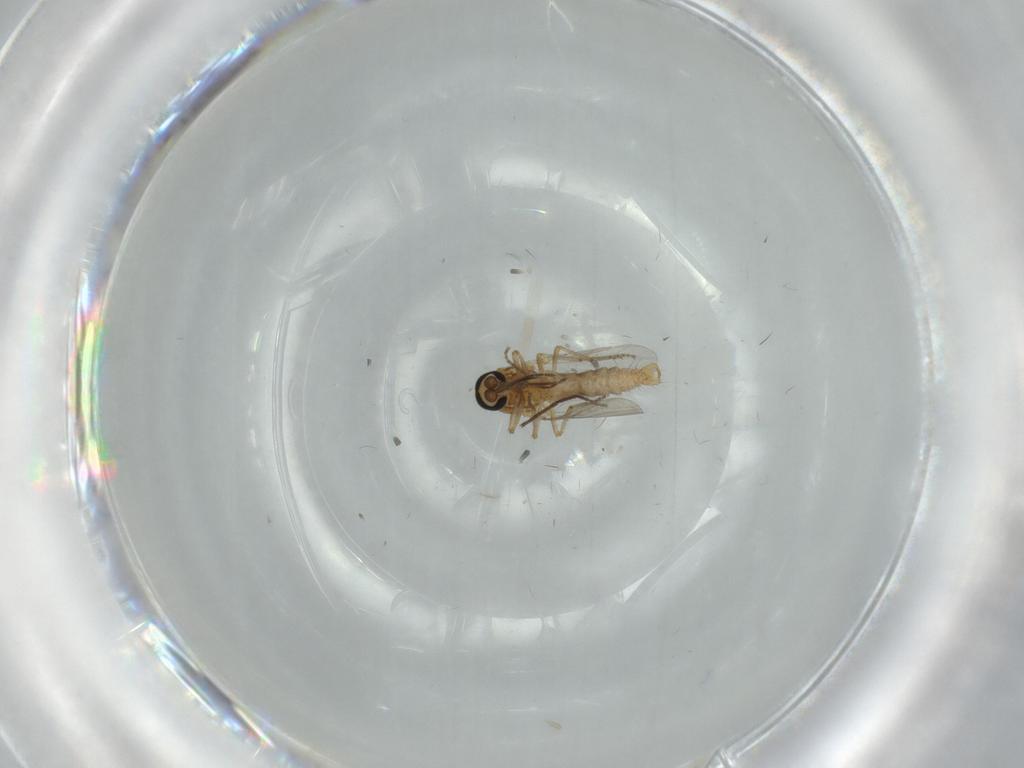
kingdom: Animalia
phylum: Arthropoda
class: Insecta
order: Diptera
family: Ceratopogonidae
